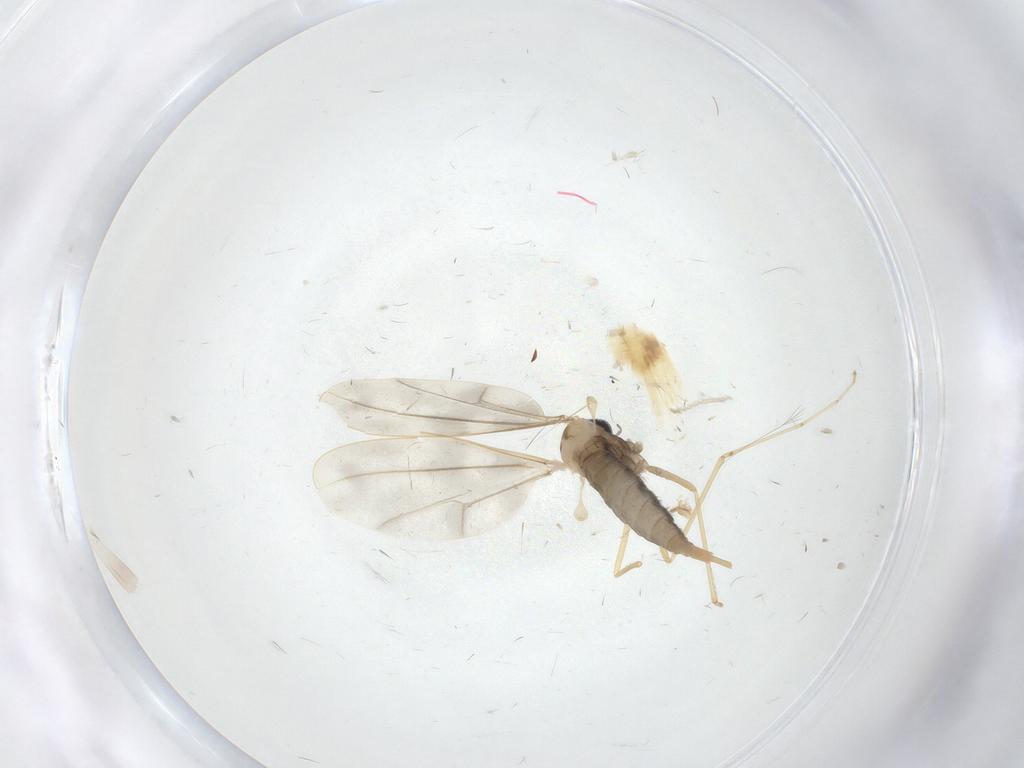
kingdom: Animalia
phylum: Arthropoda
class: Insecta
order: Diptera
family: Cecidomyiidae
